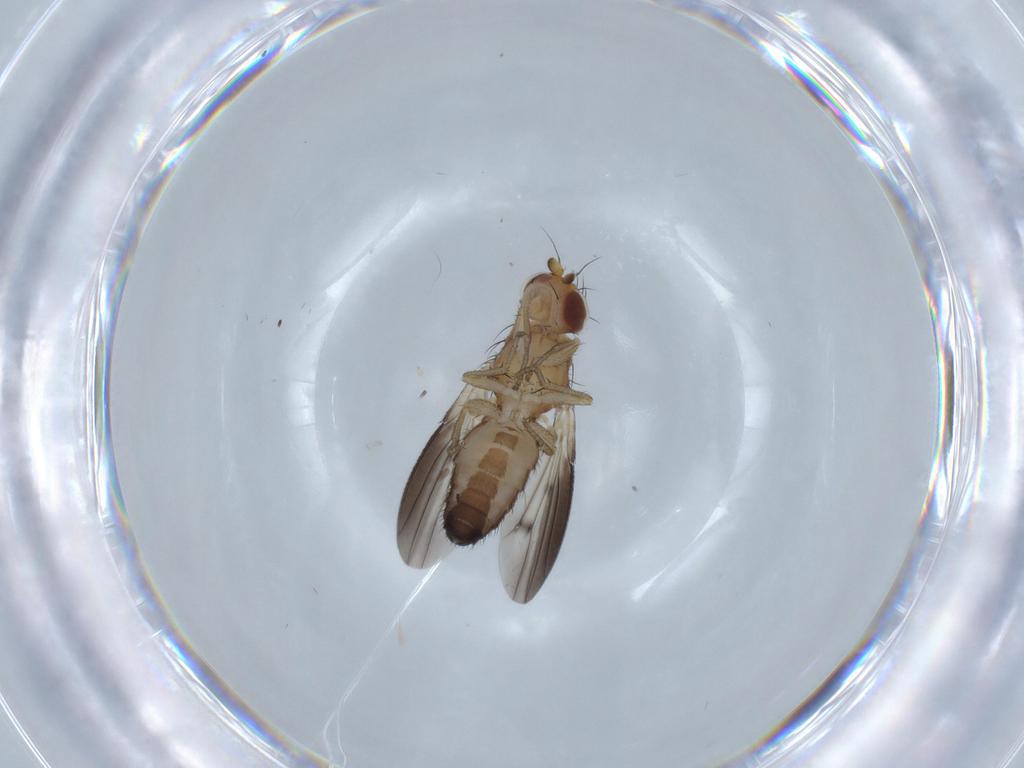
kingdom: Animalia
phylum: Arthropoda
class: Insecta
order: Diptera
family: Heleomyzidae
